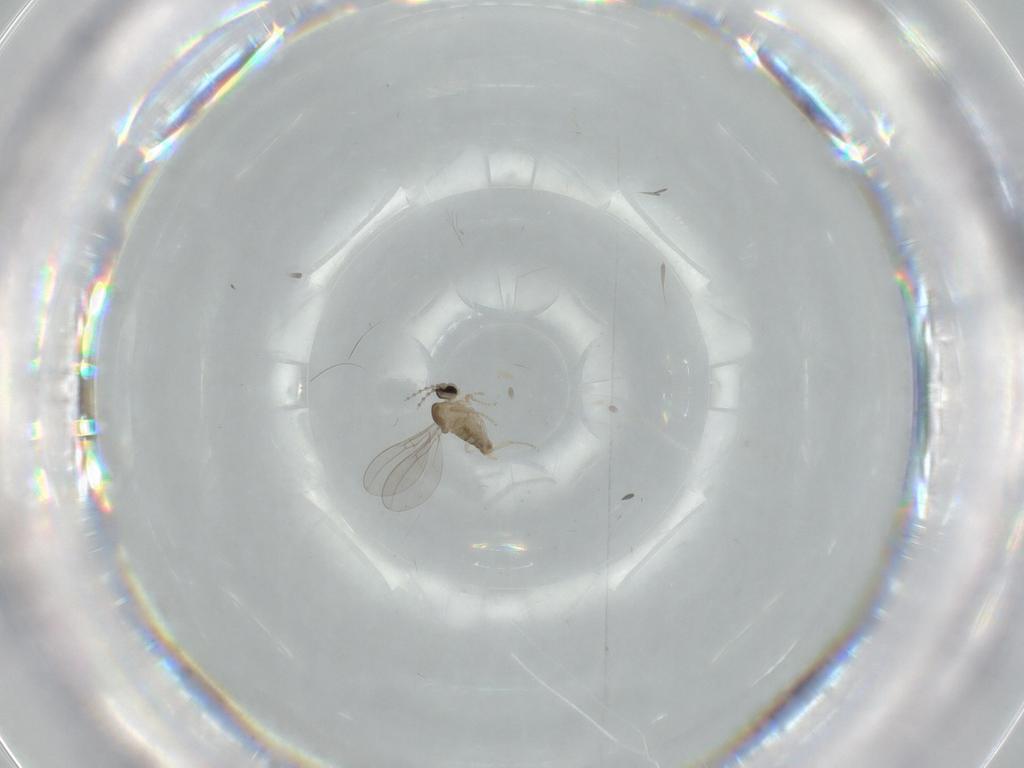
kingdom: Animalia
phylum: Arthropoda
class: Insecta
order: Diptera
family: Cecidomyiidae
